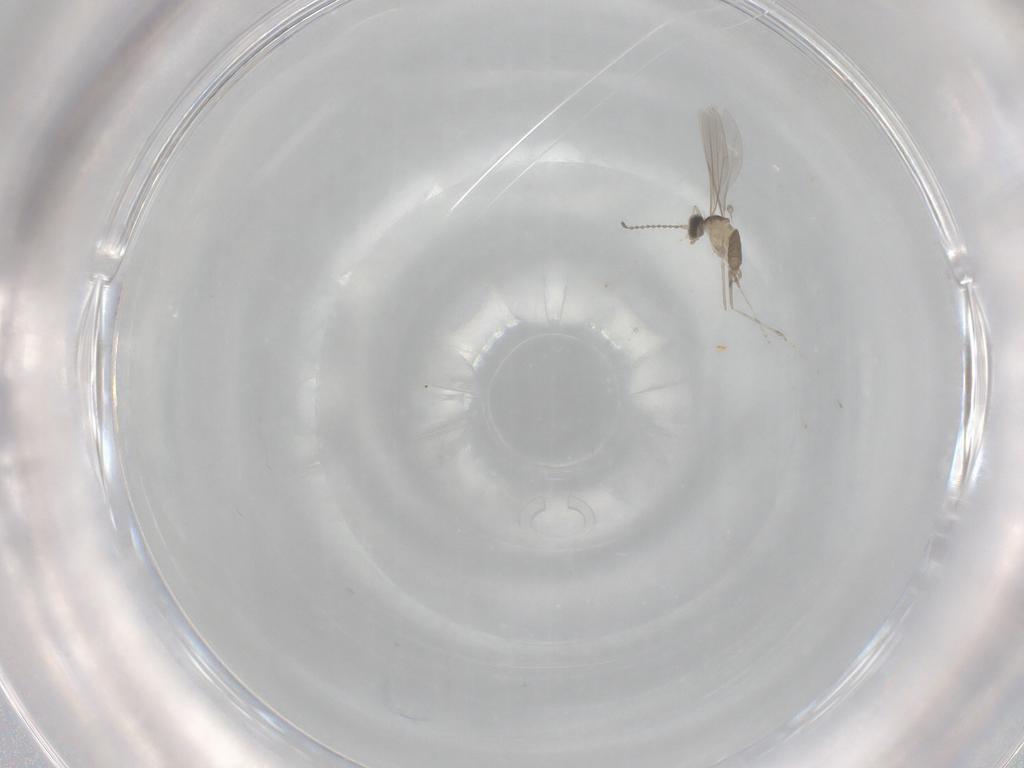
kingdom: Animalia
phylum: Arthropoda
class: Insecta
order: Diptera
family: Cecidomyiidae
